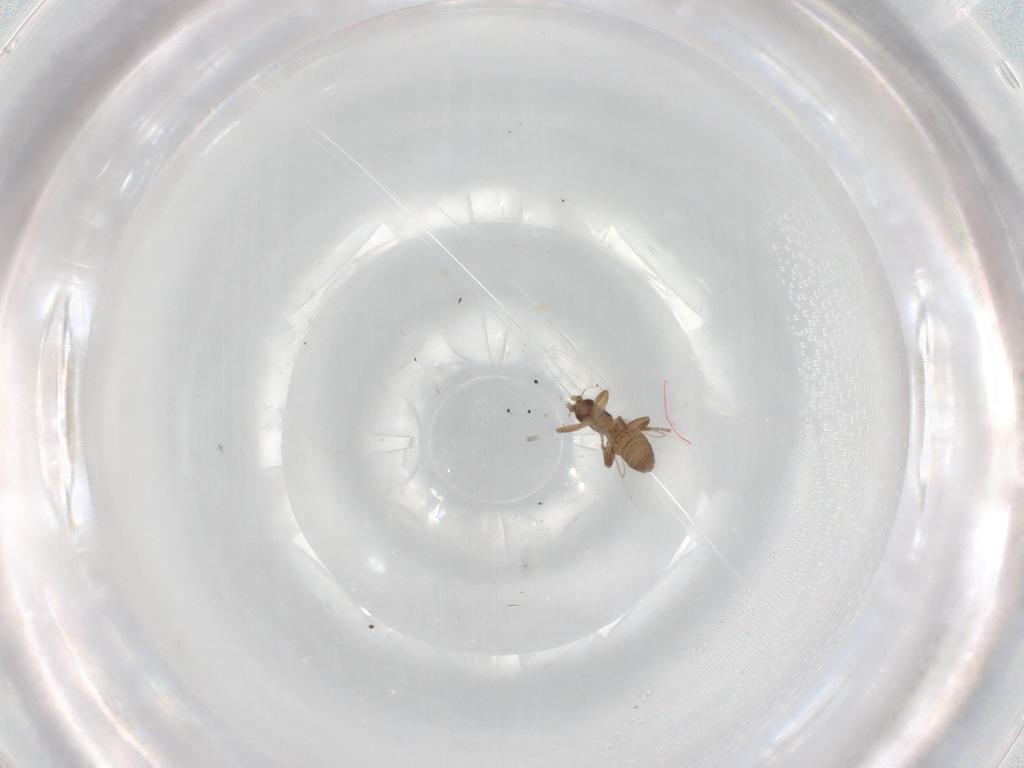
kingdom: Animalia
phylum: Arthropoda
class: Insecta
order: Diptera
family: Phoridae
